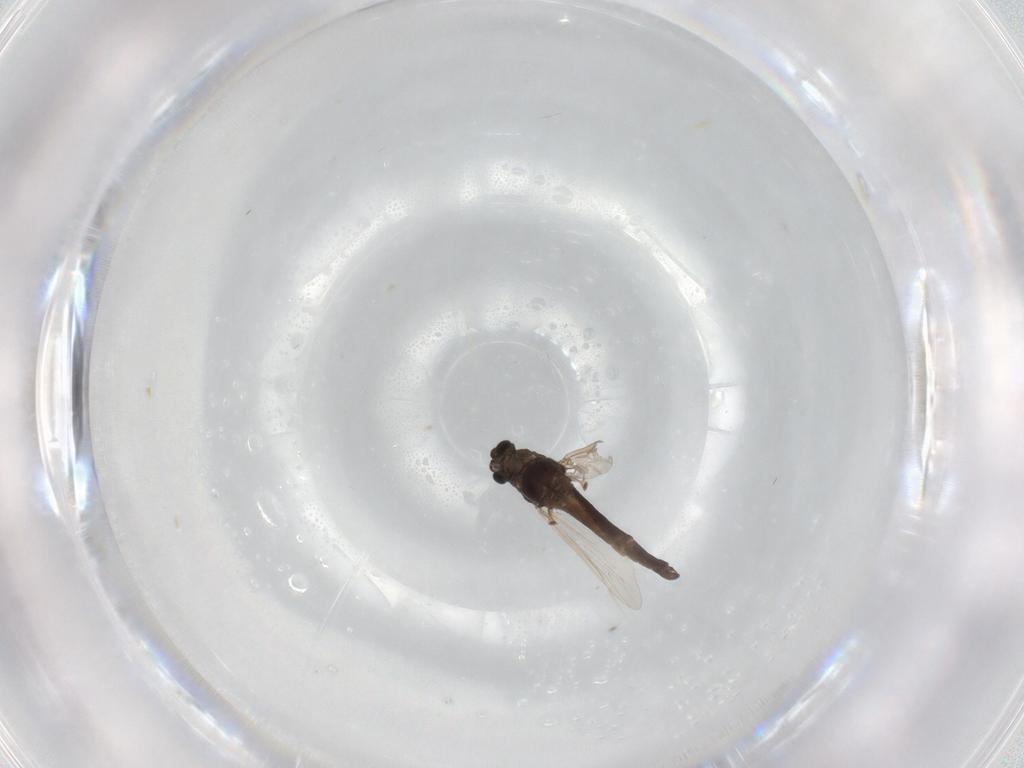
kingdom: Animalia
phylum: Arthropoda
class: Insecta
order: Diptera
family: Chironomidae
